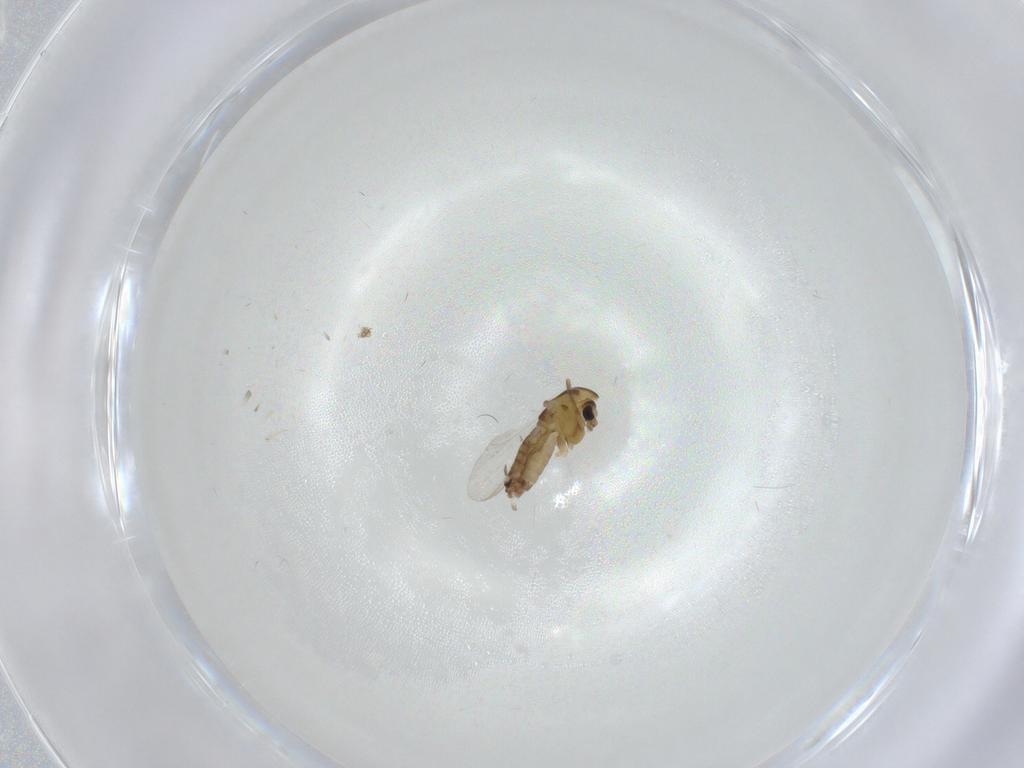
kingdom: Animalia
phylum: Arthropoda
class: Insecta
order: Diptera
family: Chironomidae
